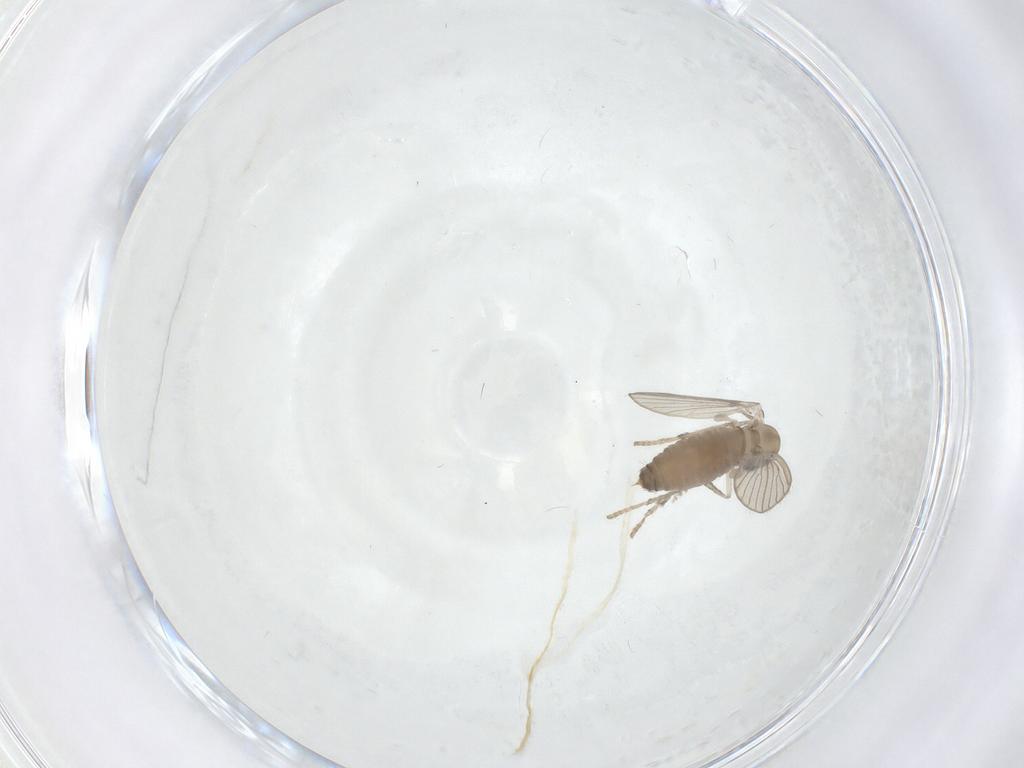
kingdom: Animalia
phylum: Arthropoda
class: Insecta
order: Diptera
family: Psychodidae
